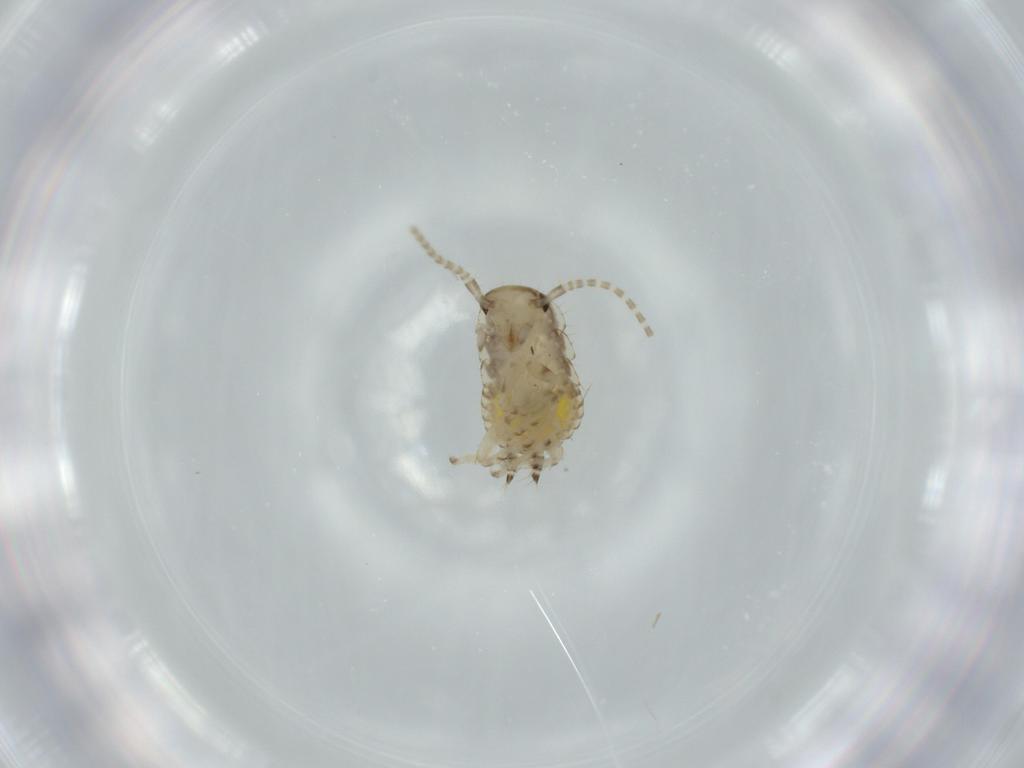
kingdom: Animalia
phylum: Arthropoda
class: Insecta
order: Blattodea
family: Ectobiidae
